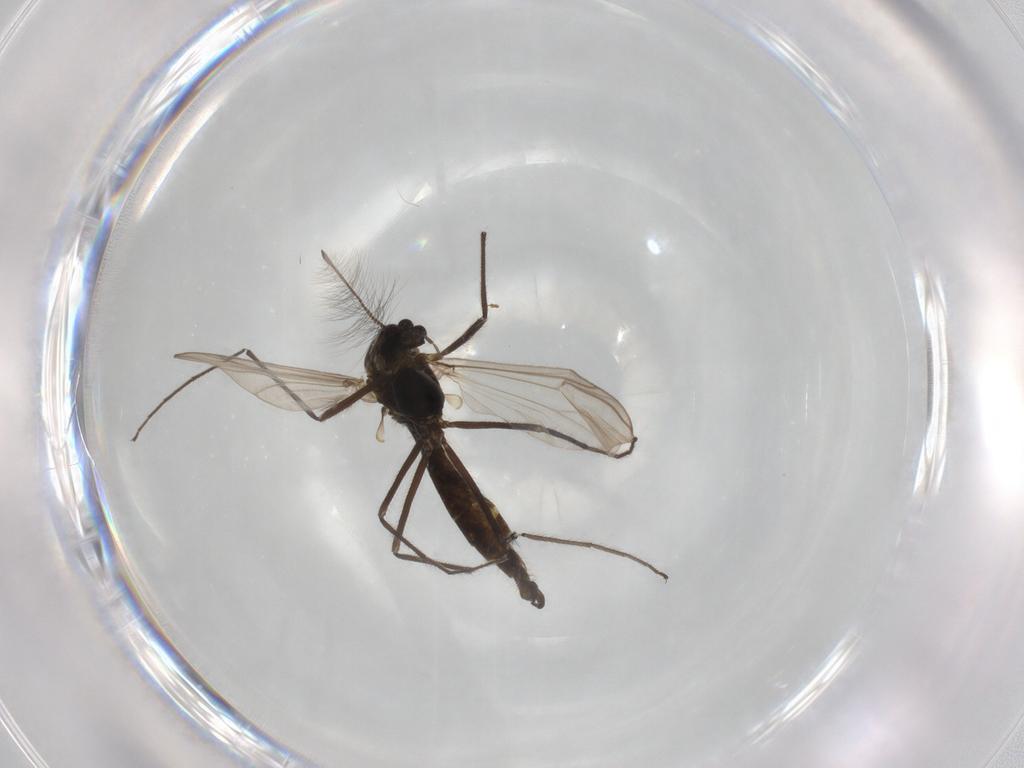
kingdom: Animalia
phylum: Arthropoda
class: Insecta
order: Diptera
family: Chironomidae
